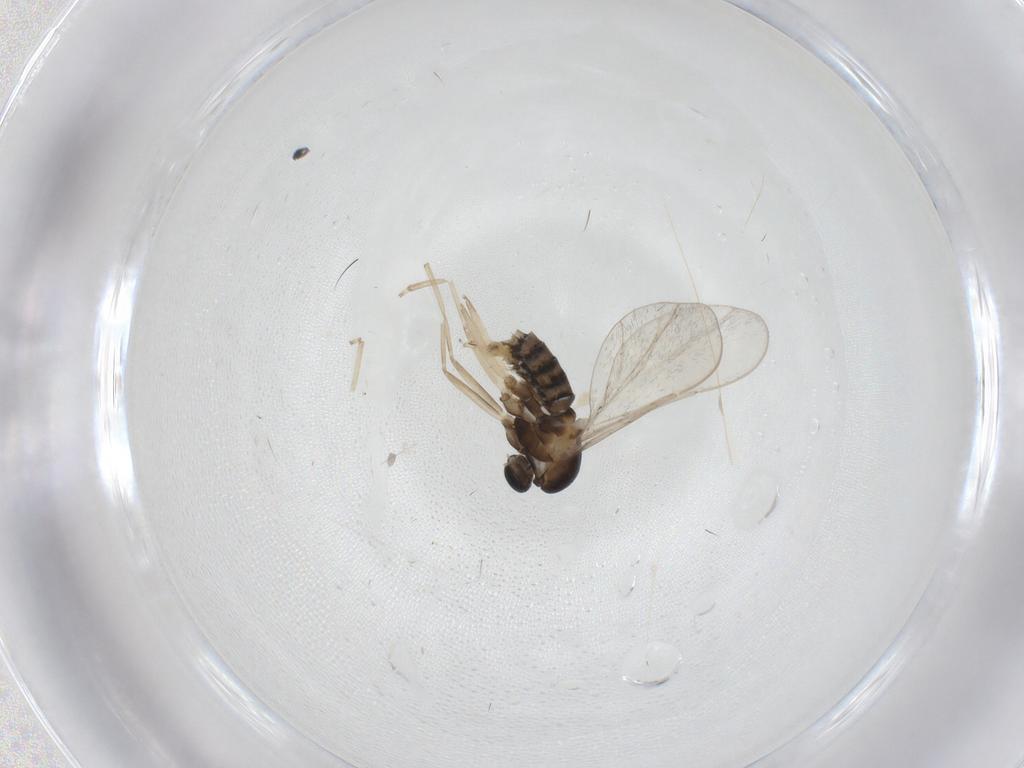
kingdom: Animalia
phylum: Arthropoda
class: Insecta
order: Diptera
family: Cecidomyiidae
